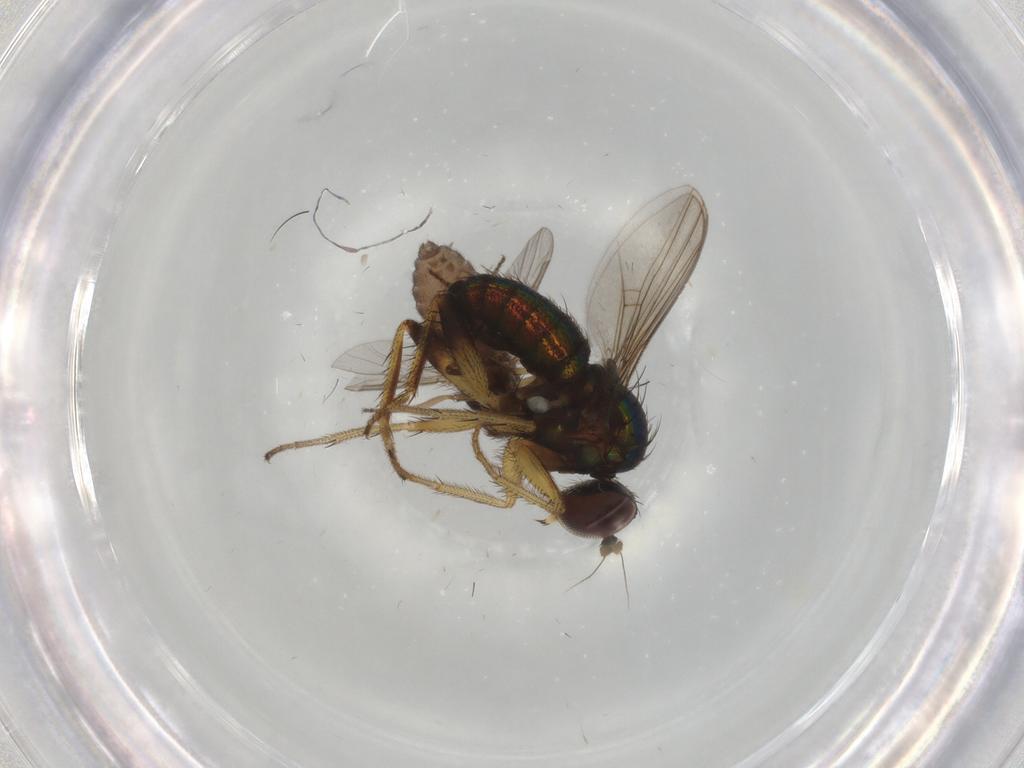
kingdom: Animalia
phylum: Arthropoda
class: Insecta
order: Diptera
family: Ceratopogonidae
